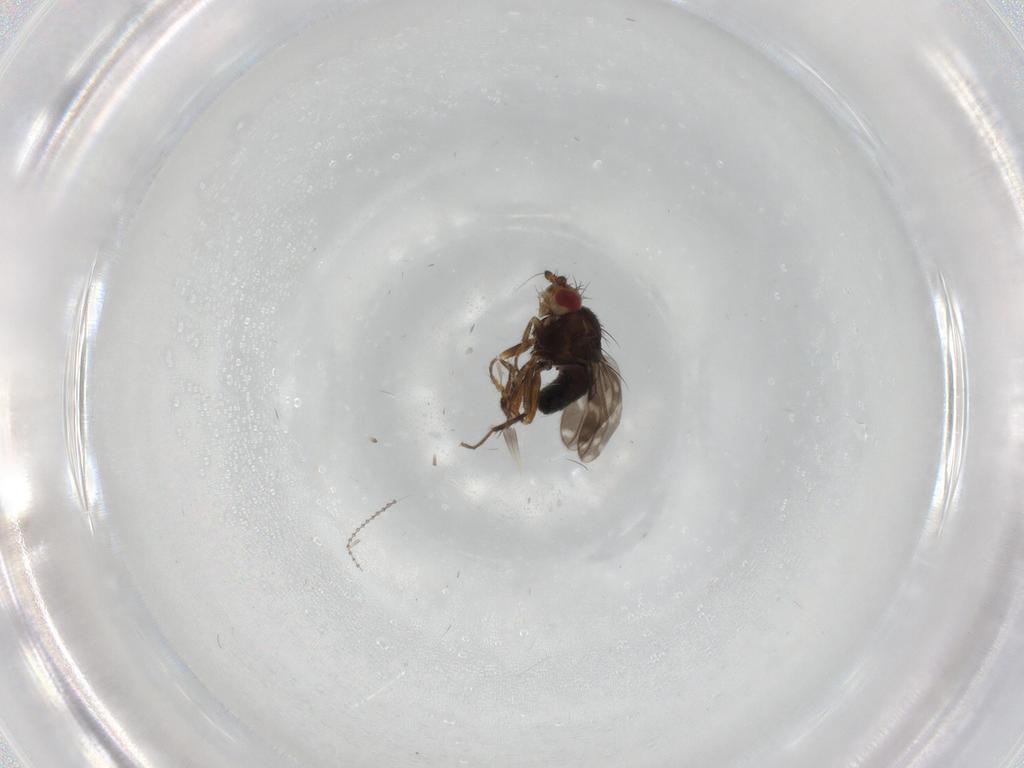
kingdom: Animalia
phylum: Arthropoda
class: Insecta
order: Diptera
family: Sphaeroceridae
